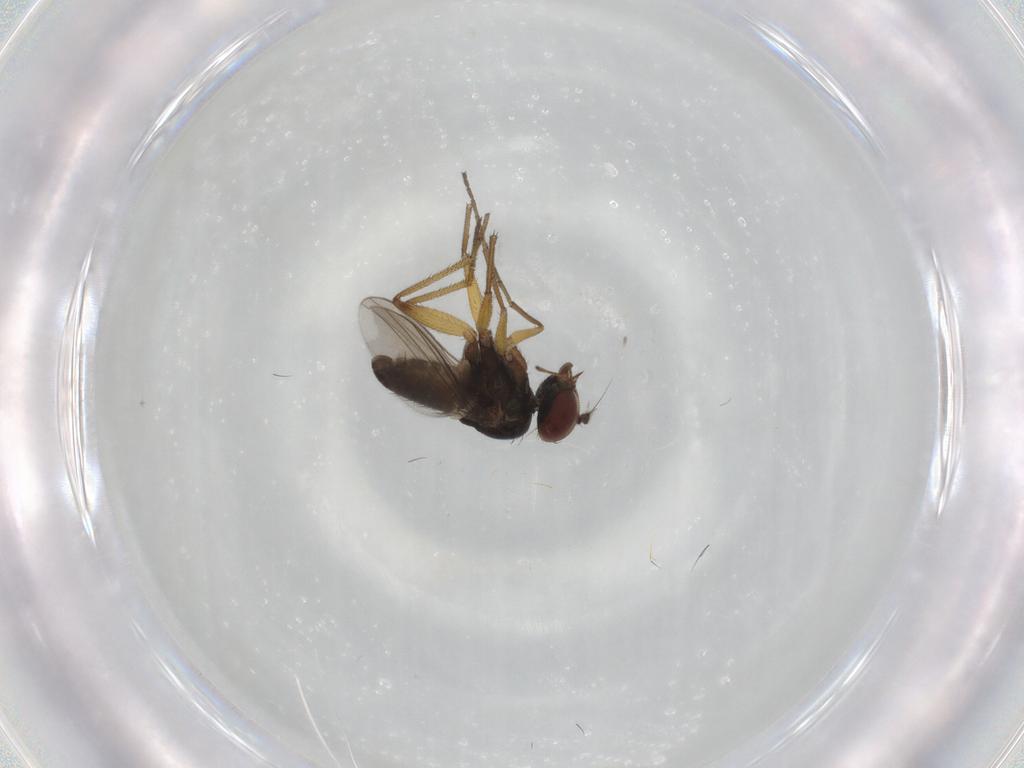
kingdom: Animalia
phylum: Arthropoda
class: Insecta
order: Diptera
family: Dolichopodidae
